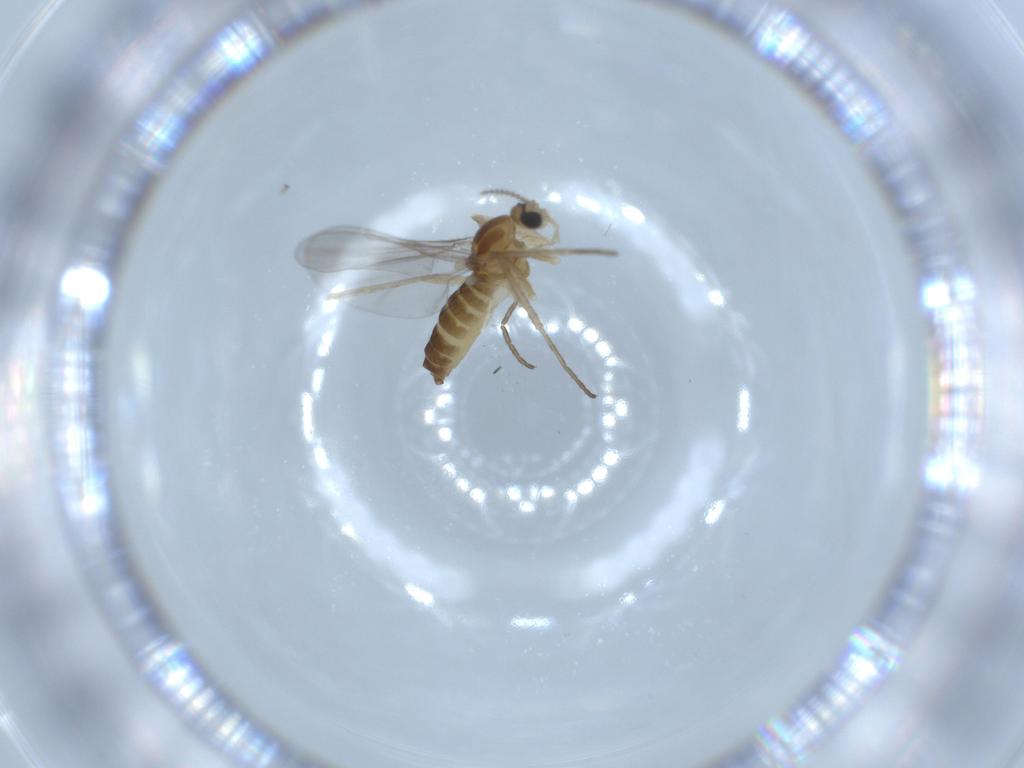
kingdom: Animalia
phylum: Arthropoda
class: Insecta
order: Diptera
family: Cecidomyiidae
